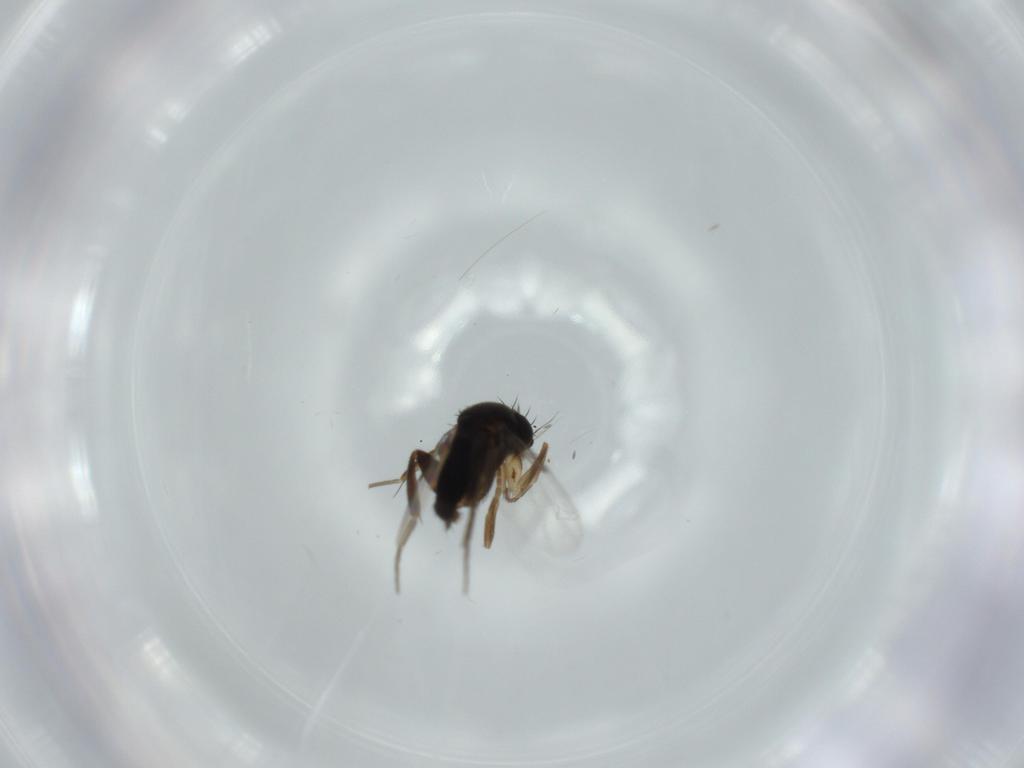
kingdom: Animalia
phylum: Arthropoda
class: Insecta
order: Diptera
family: Phoridae
